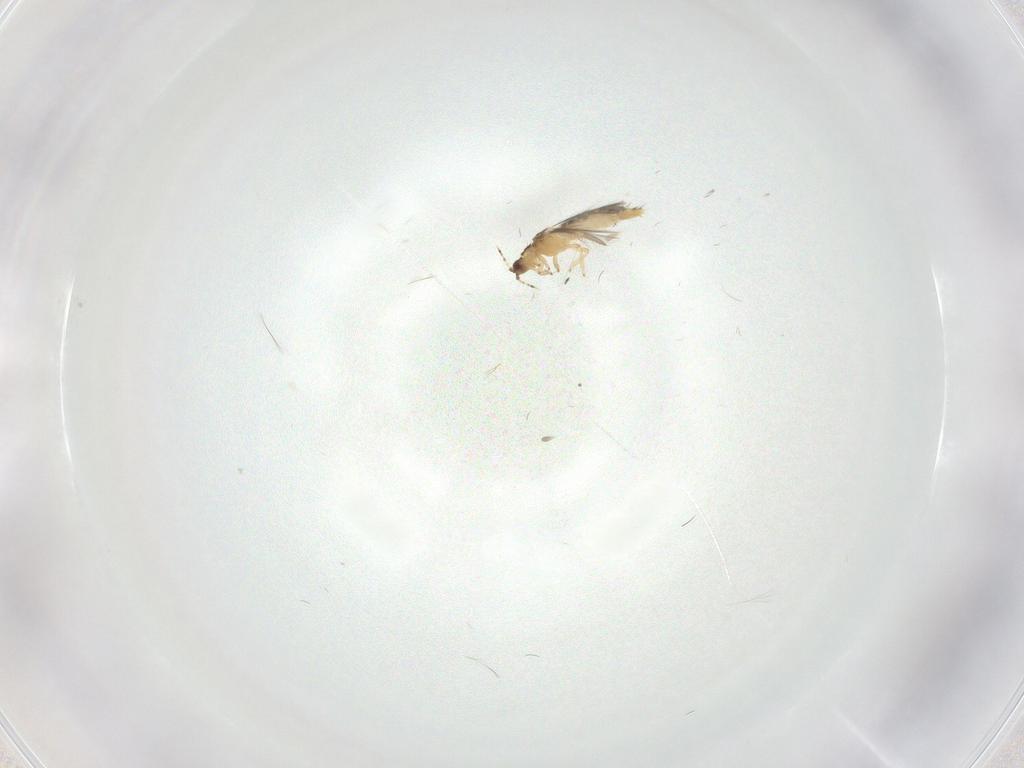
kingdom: Animalia
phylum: Arthropoda
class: Insecta
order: Thysanoptera
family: Thripidae
